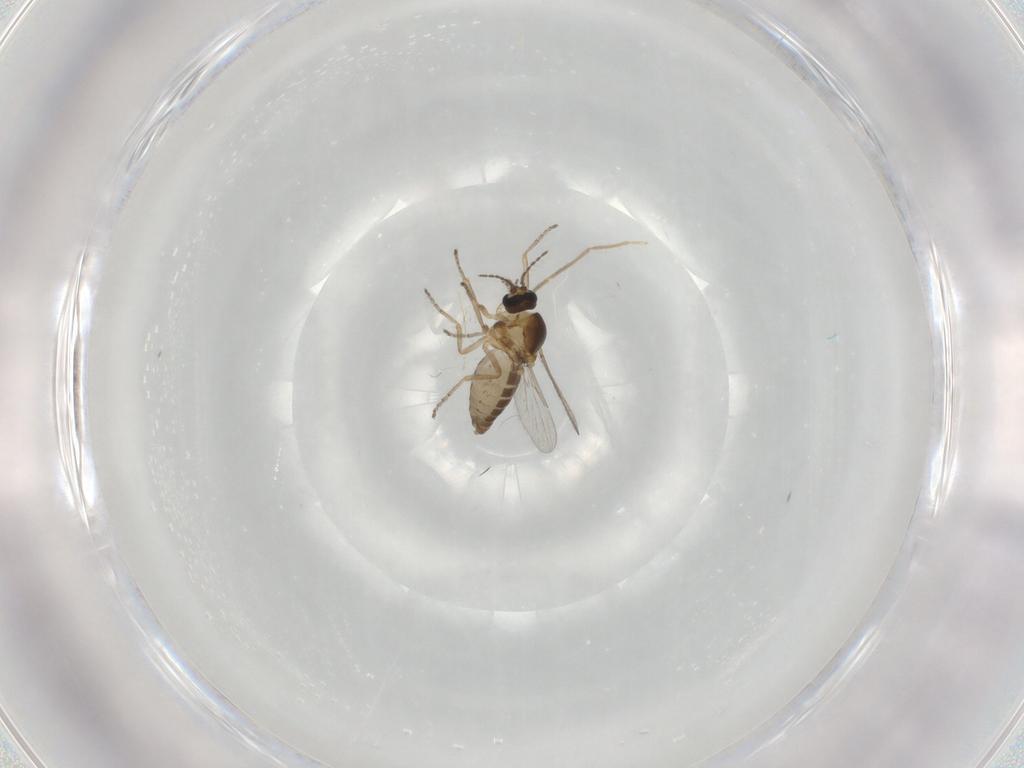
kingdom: Animalia
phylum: Arthropoda
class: Insecta
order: Diptera
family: Ceratopogonidae
